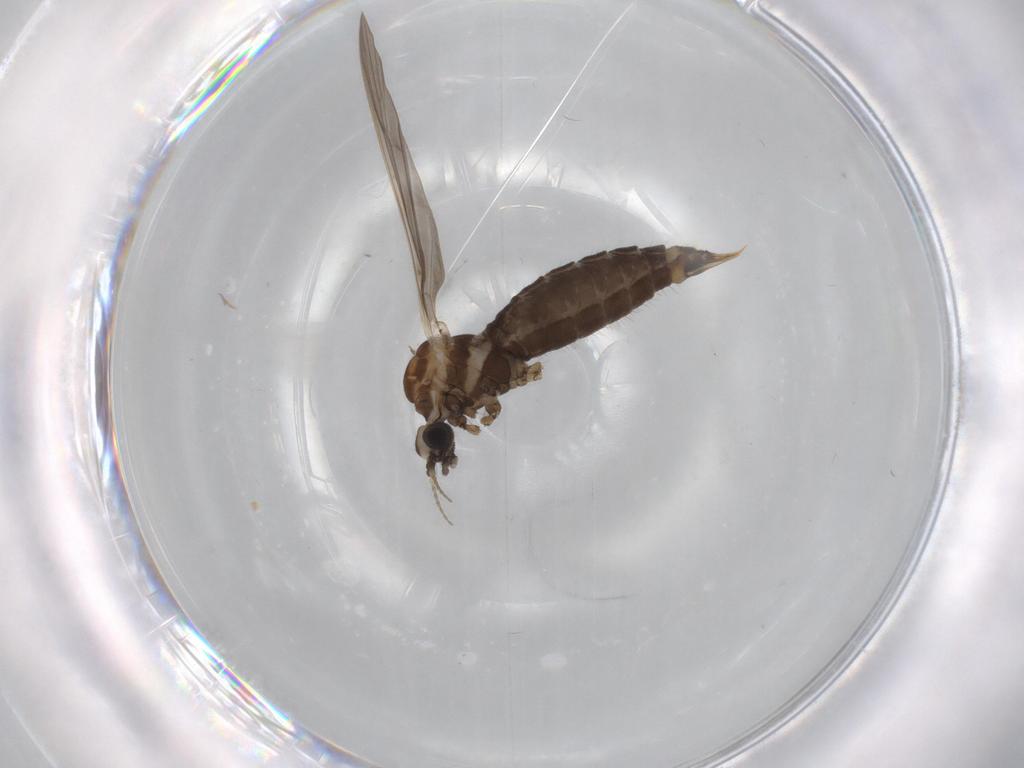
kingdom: Animalia
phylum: Arthropoda
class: Insecta
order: Diptera
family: Limoniidae
